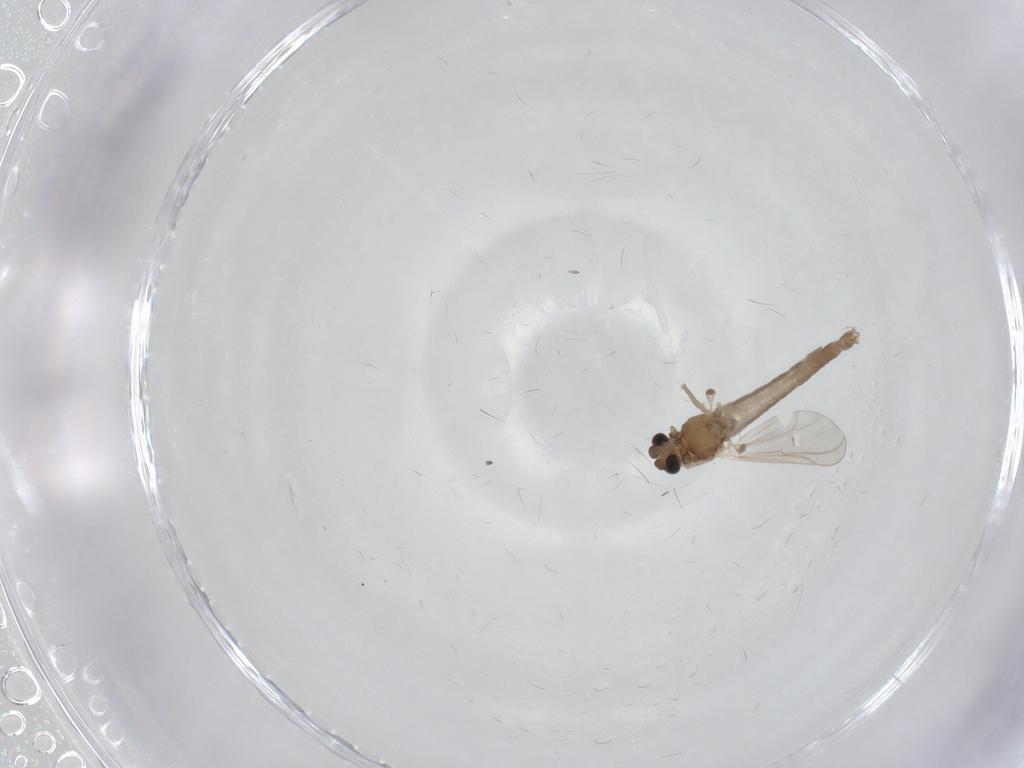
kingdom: Animalia
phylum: Arthropoda
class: Insecta
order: Diptera
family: Chironomidae
